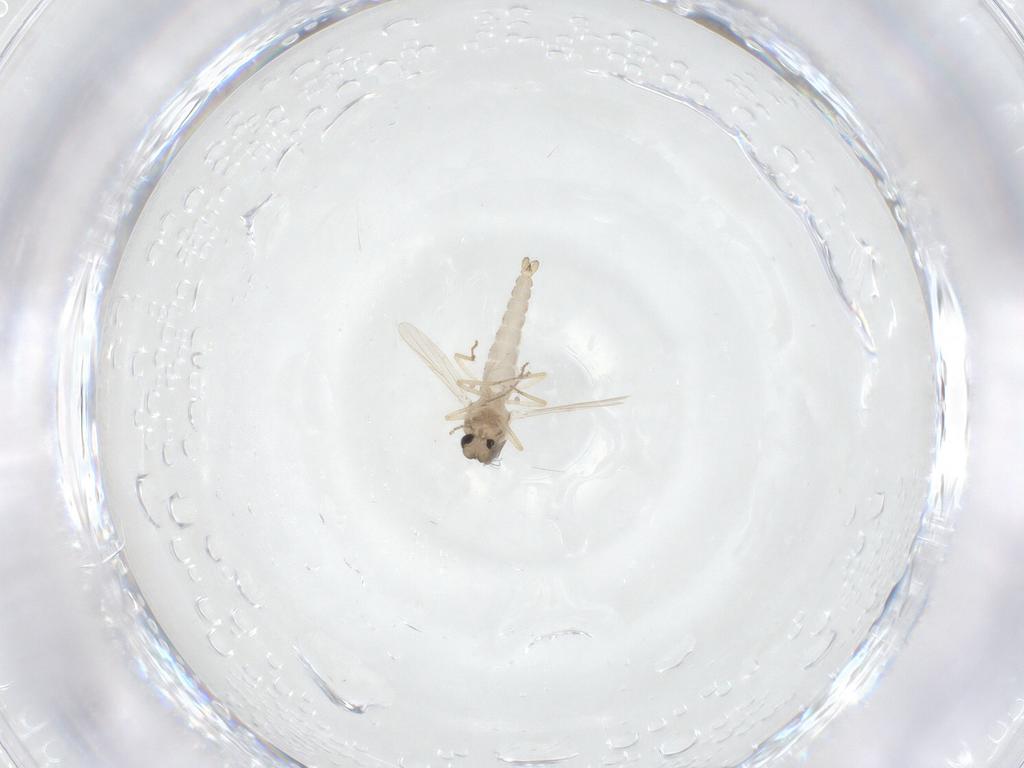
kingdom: Animalia
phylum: Arthropoda
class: Insecta
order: Diptera
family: Ceratopogonidae
